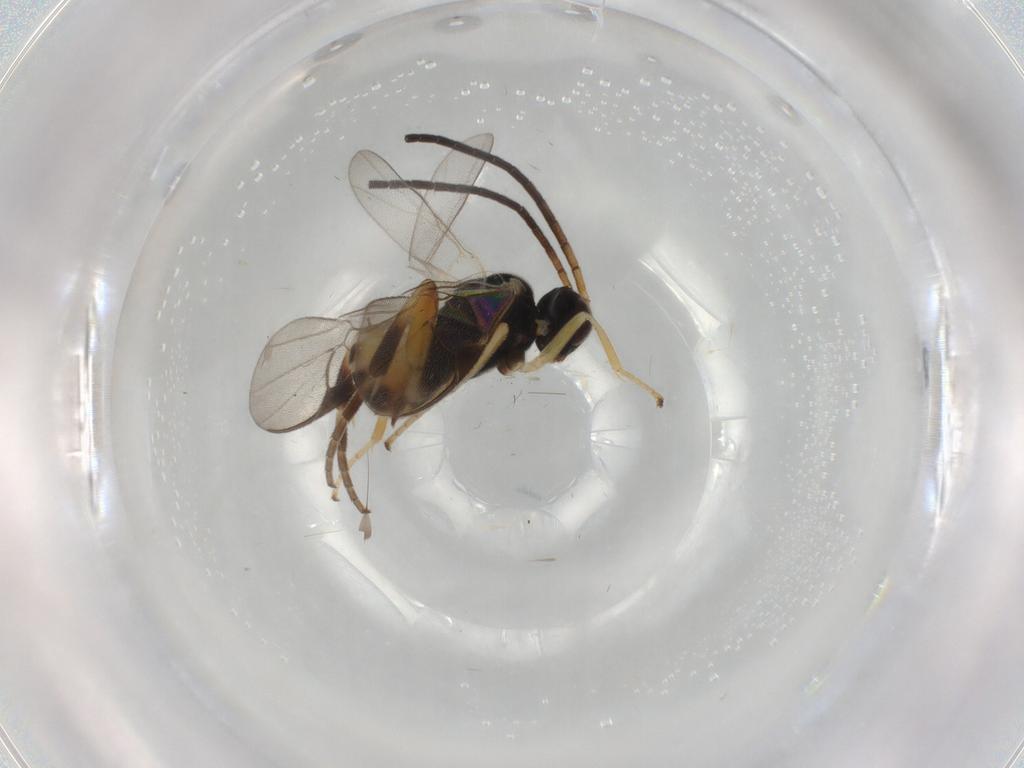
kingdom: Animalia
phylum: Arthropoda
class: Insecta
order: Hymenoptera
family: Braconidae
